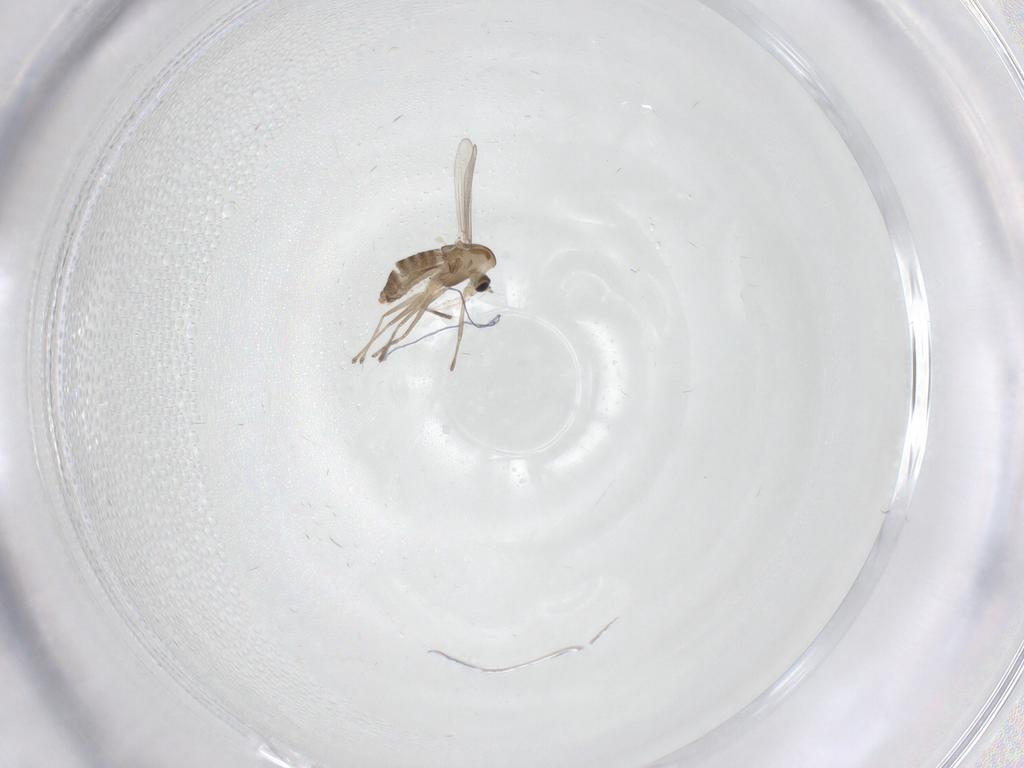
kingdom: Animalia
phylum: Arthropoda
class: Insecta
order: Diptera
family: Chironomidae
